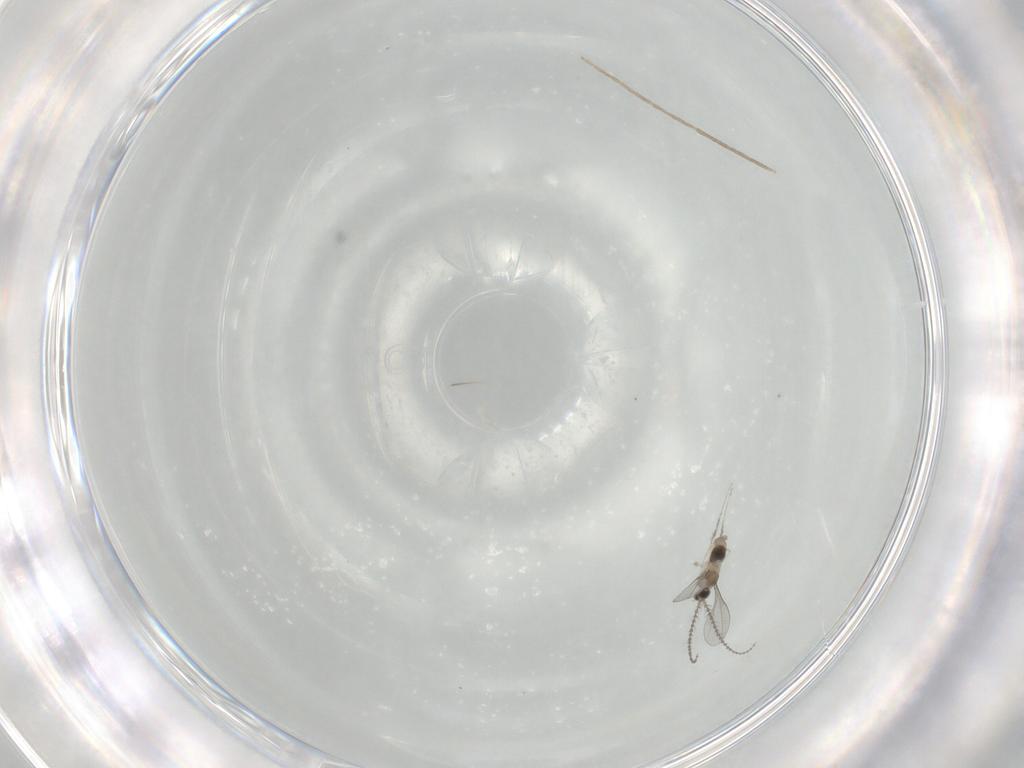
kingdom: Animalia
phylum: Arthropoda
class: Insecta
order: Diptera
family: Cecidomyiidae
